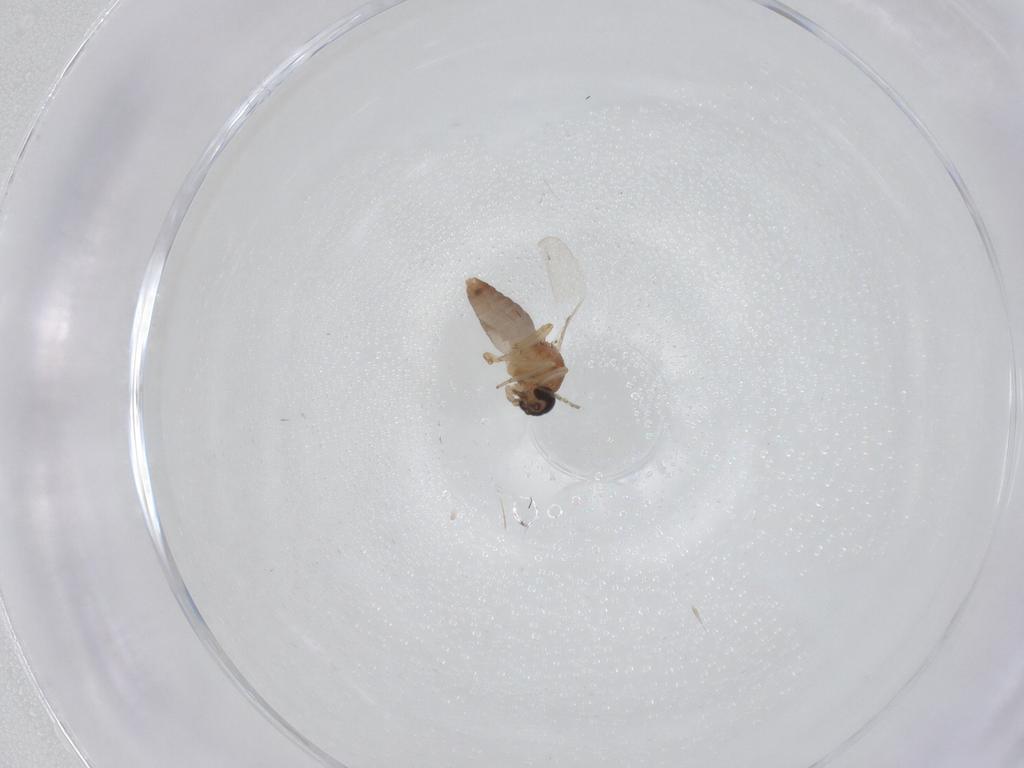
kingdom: Animalia
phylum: Arthropoda
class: Insecta
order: Diptera
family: Ceratopogonidae
